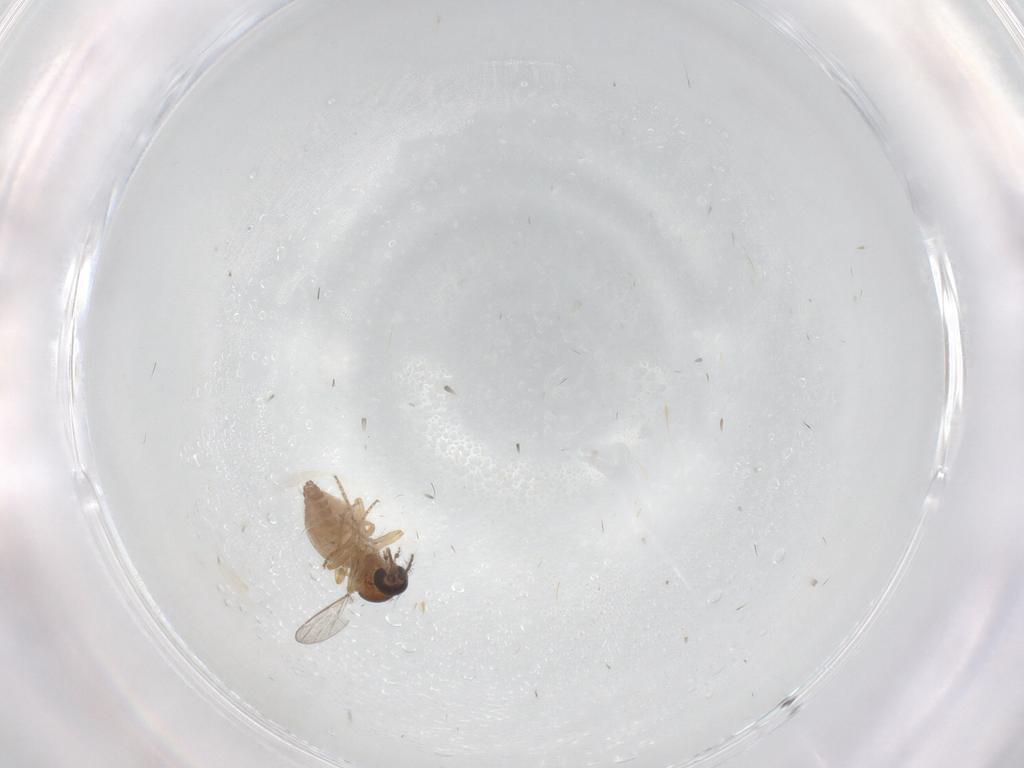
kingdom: Animalia
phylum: Arthropoda
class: Insecta
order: Diptera
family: Ceratopogonidae
